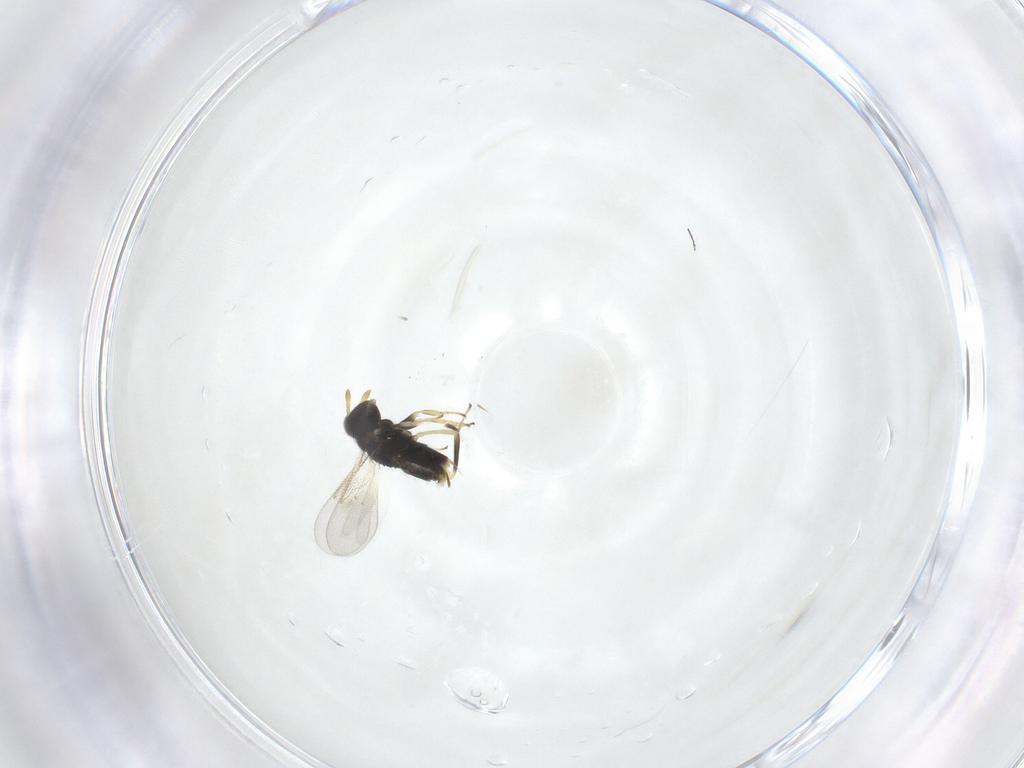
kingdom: Animalia
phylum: Arthropoda
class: Insecta
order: Hymenoptera
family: Aphelinidae
